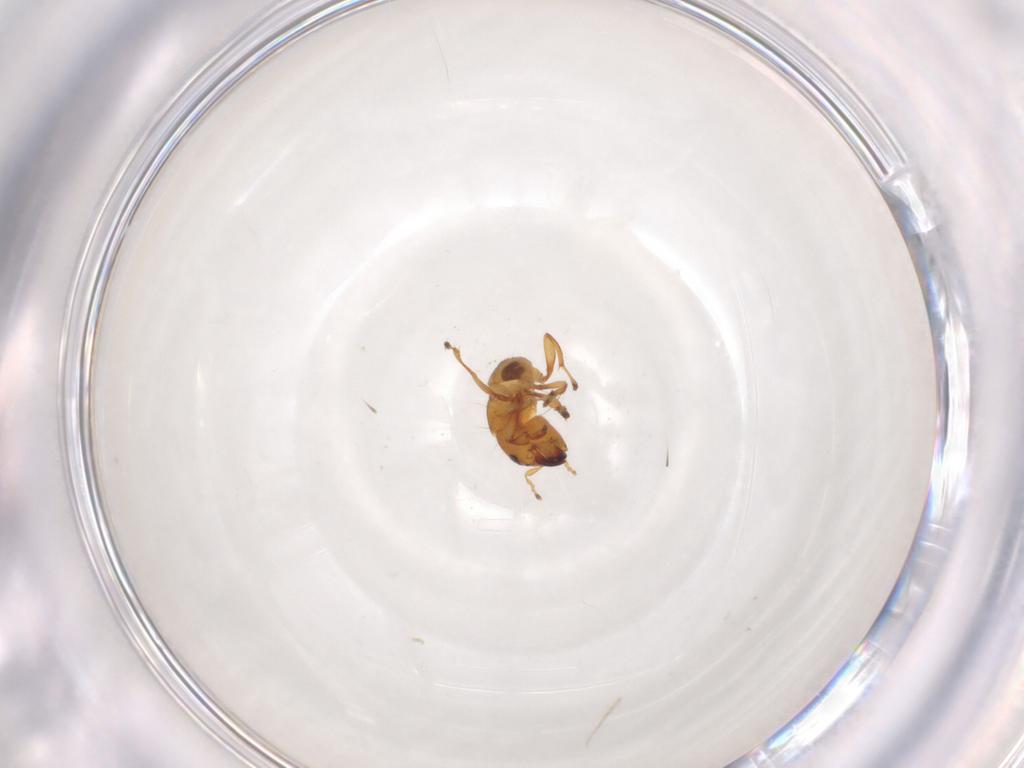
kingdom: Animalia
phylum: Arthropoda
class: Insecta
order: Hymenoptera
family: Pteromalidae
